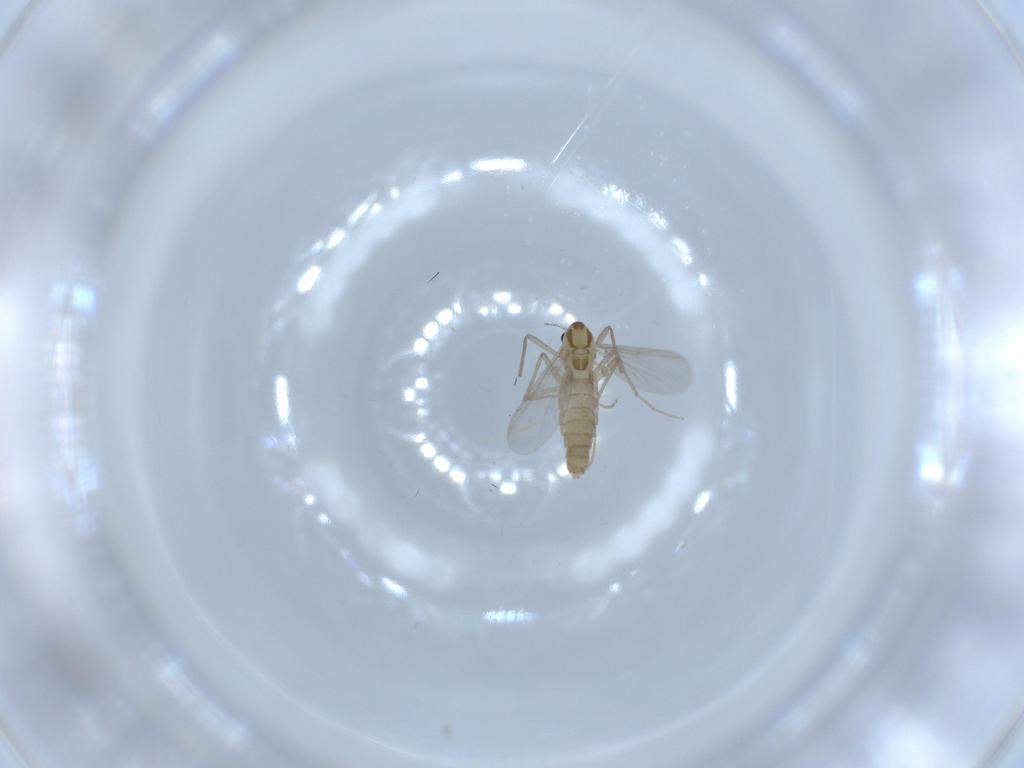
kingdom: Animalia
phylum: Arthropoda
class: Insecta
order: Diptera
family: Chironomidae
